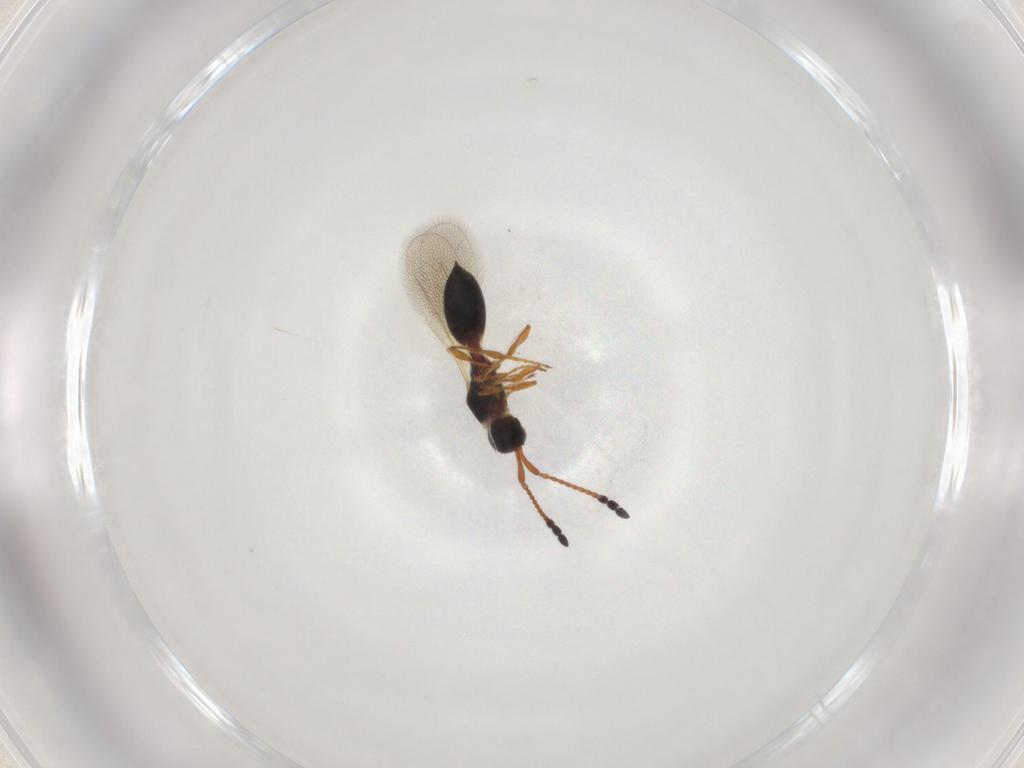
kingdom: Animalia
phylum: Arthropoda
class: Insecta
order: Hymenoptera
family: Diapriidae
